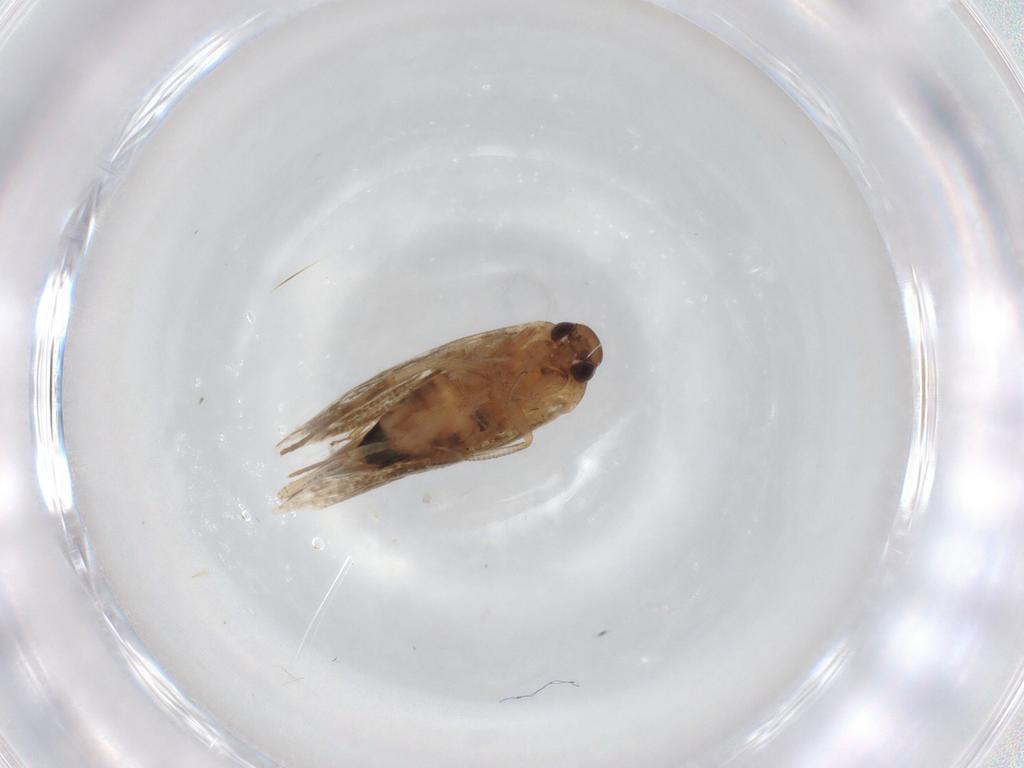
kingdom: Animalia
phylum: Arthropoda
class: Insecta
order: Lepidoptera
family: Cosmopterigidae
